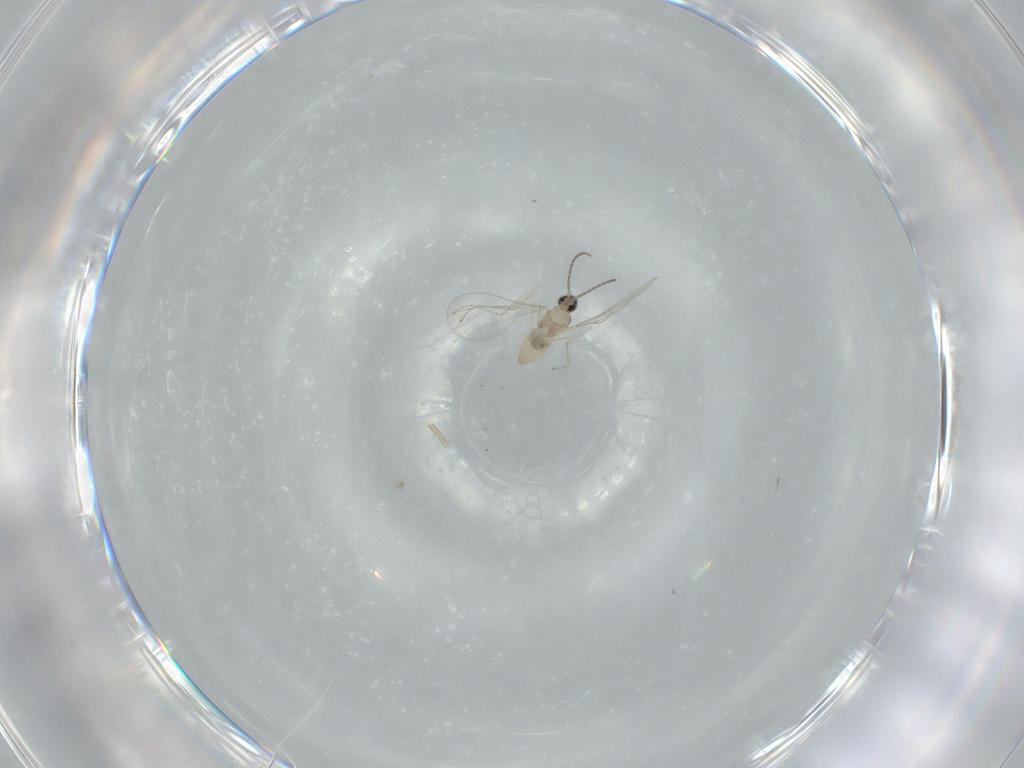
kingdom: Animalia
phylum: Arthropoda
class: Insecta
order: Diptera
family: Cecidomyiidae
